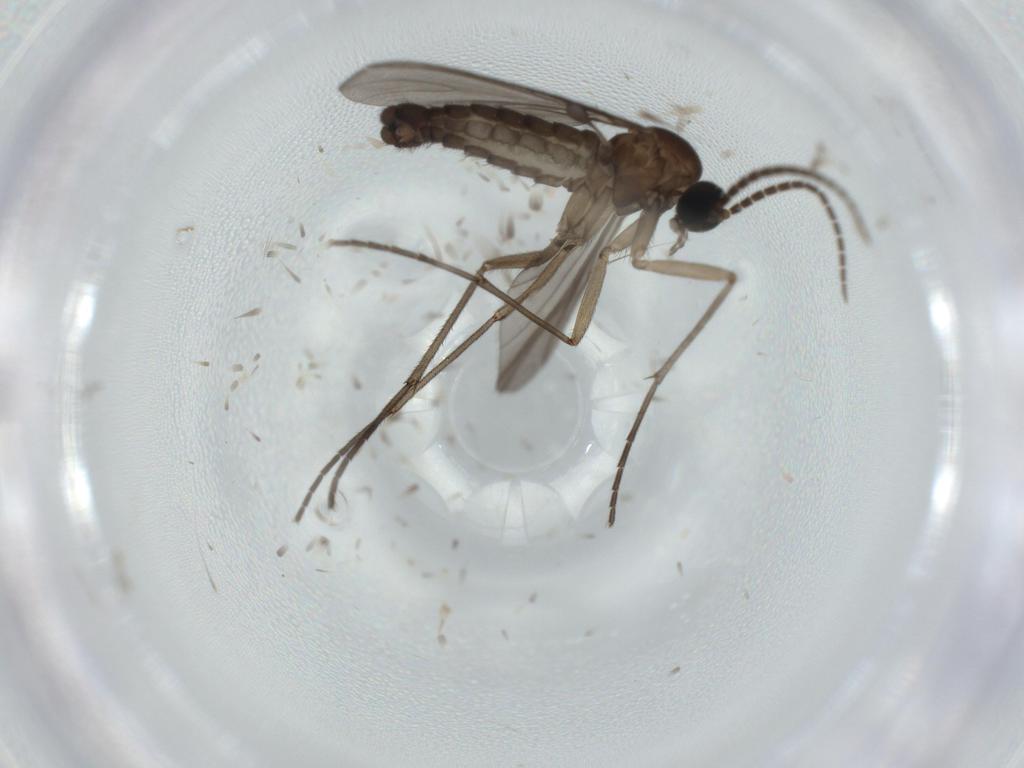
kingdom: Animalia
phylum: Arthropoda
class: Insecta
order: Diptera
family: Sciaridae
